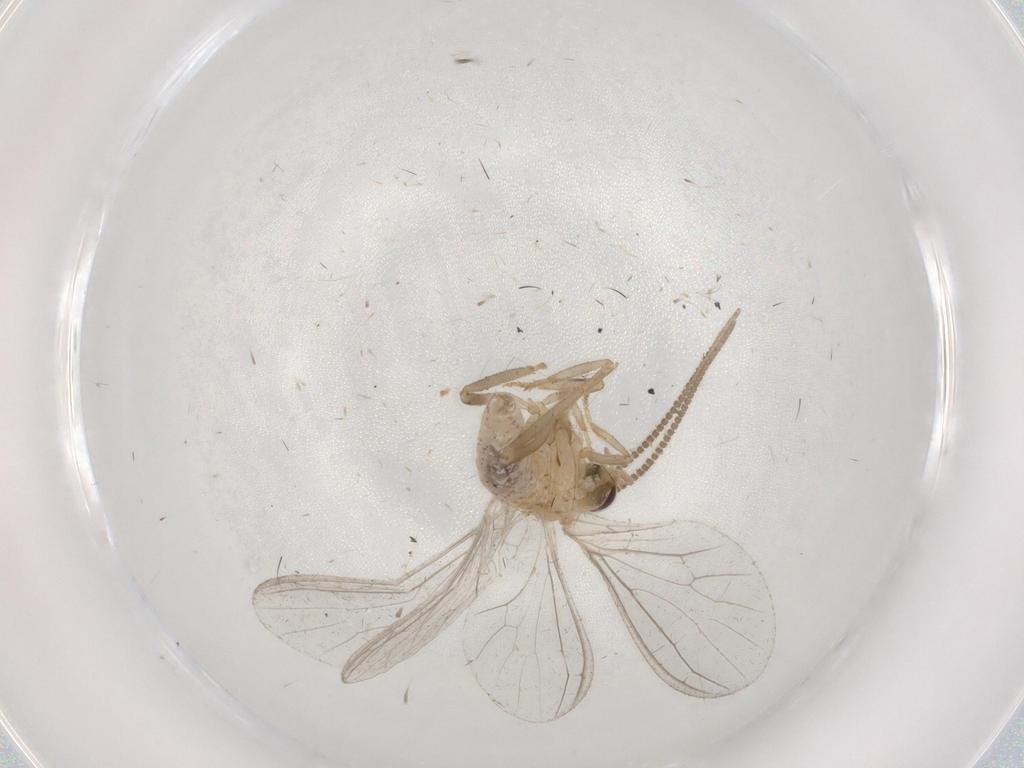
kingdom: Animalia
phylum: Arthropoda
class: Insecta
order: Neuroptera
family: Coniopterygidae
